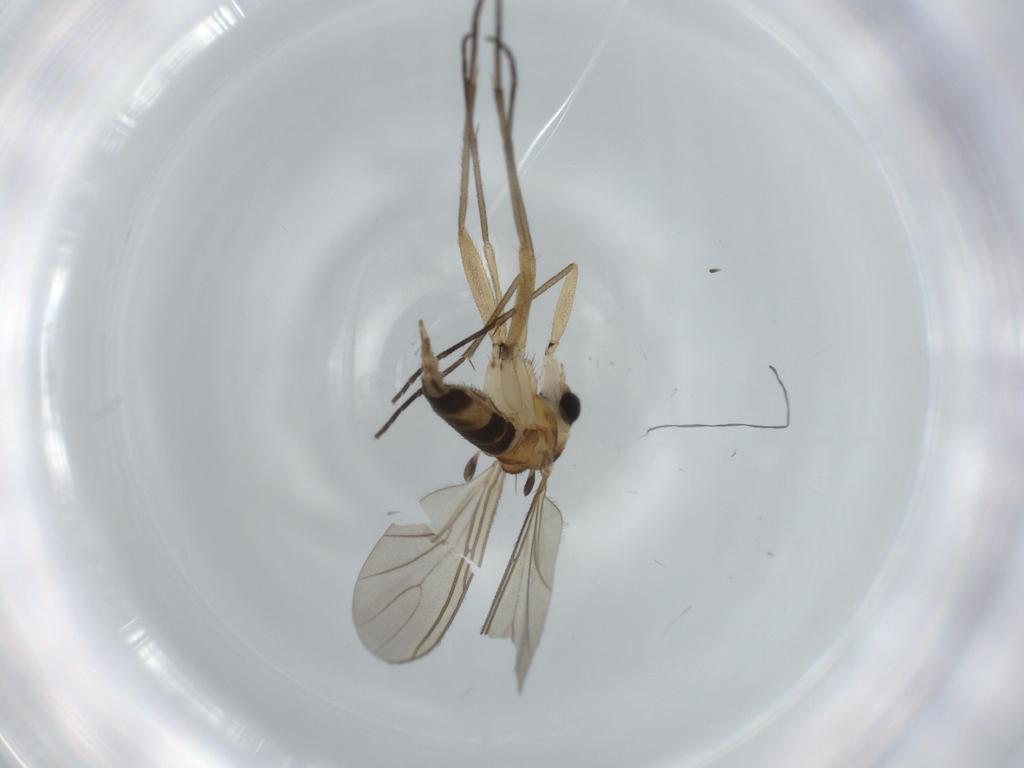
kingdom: Animalia
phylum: Arthropoda
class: Insecta
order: Diptera
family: Sciaridae
